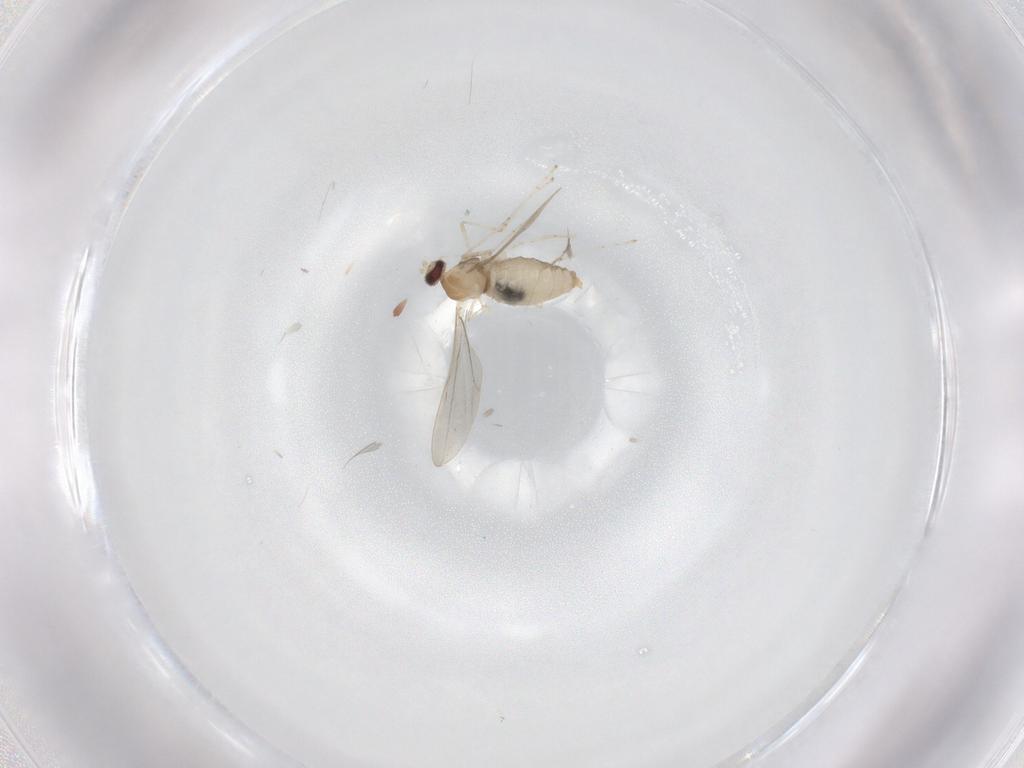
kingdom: Animalia
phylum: Arthropoda
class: Insecta
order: Diptera
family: Cecidomyiidae
